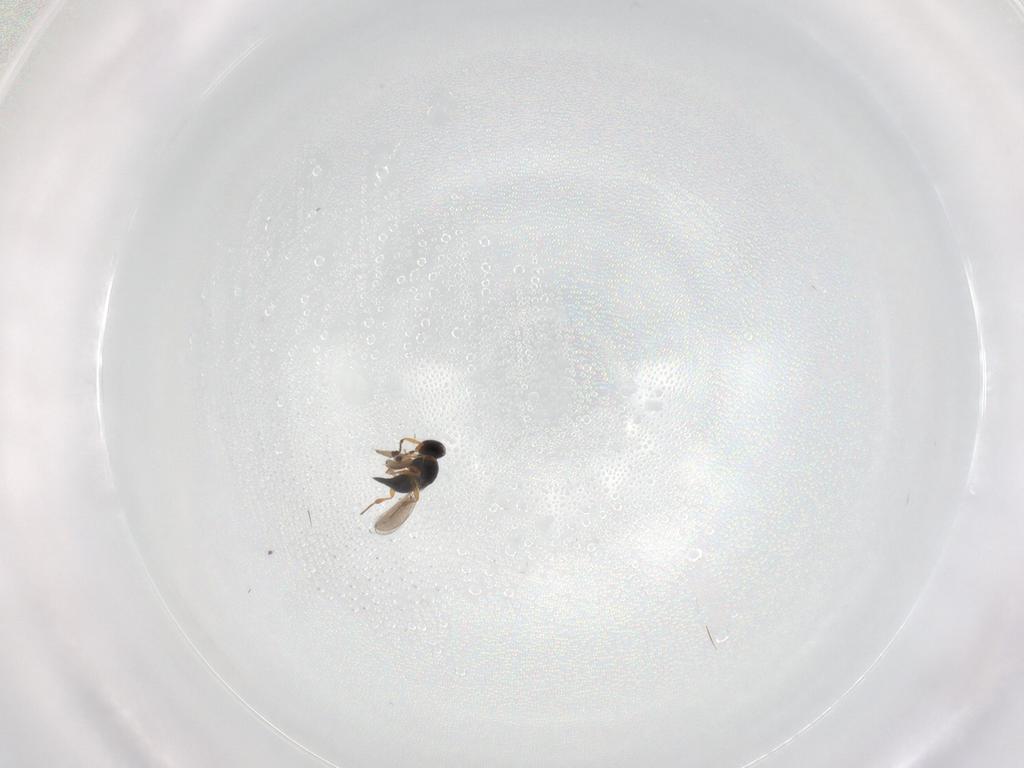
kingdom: Animalia
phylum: Arthropoda
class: Insecta
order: Hymenoptera
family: Platygastridae
